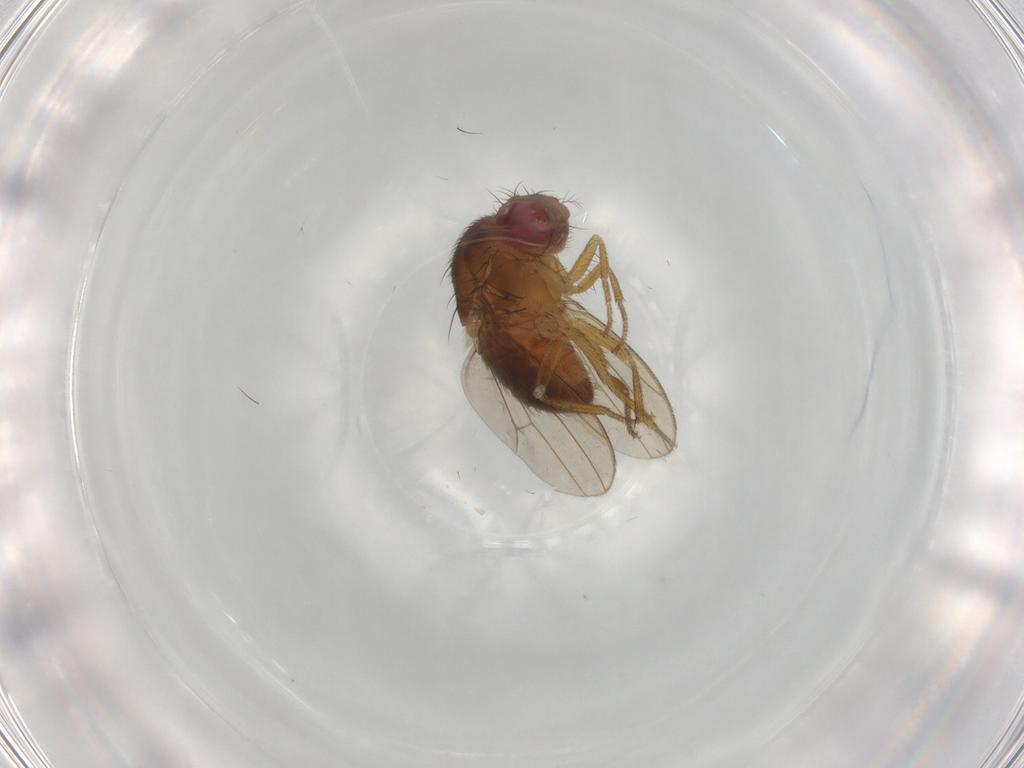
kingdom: Animalia
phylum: Arthropoda
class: Insecta
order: Diptera
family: Drosophilidae
